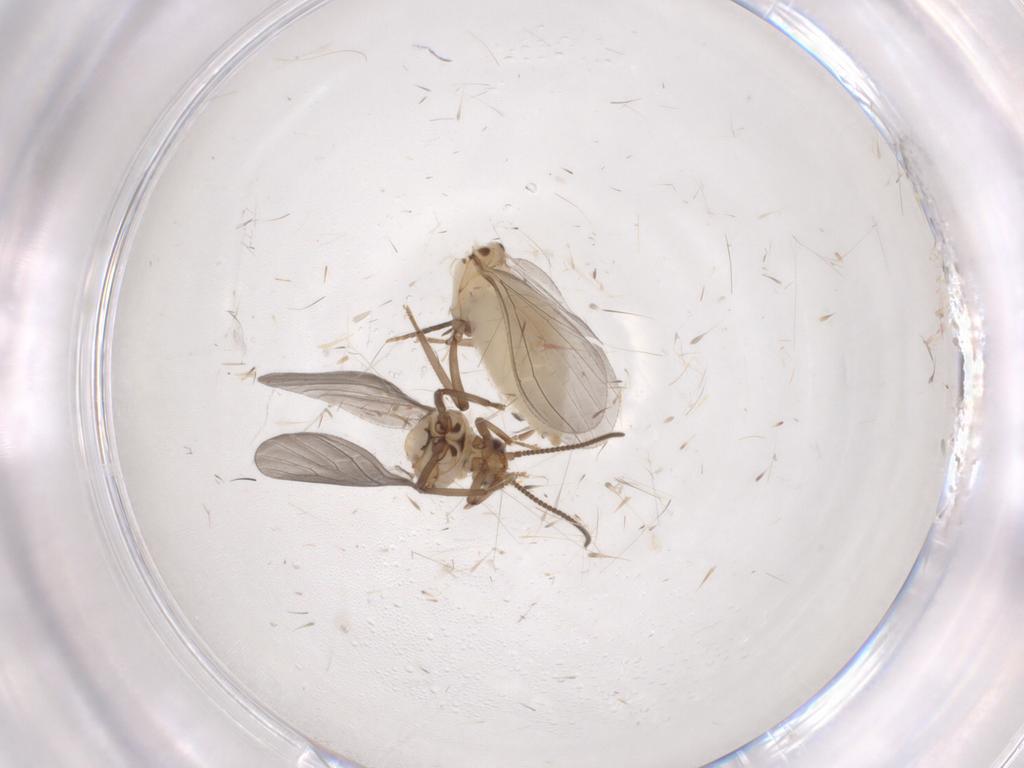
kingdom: Animalia
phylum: Arthropoda
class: Insecta
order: Neuroptera
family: Coniopterygidae
